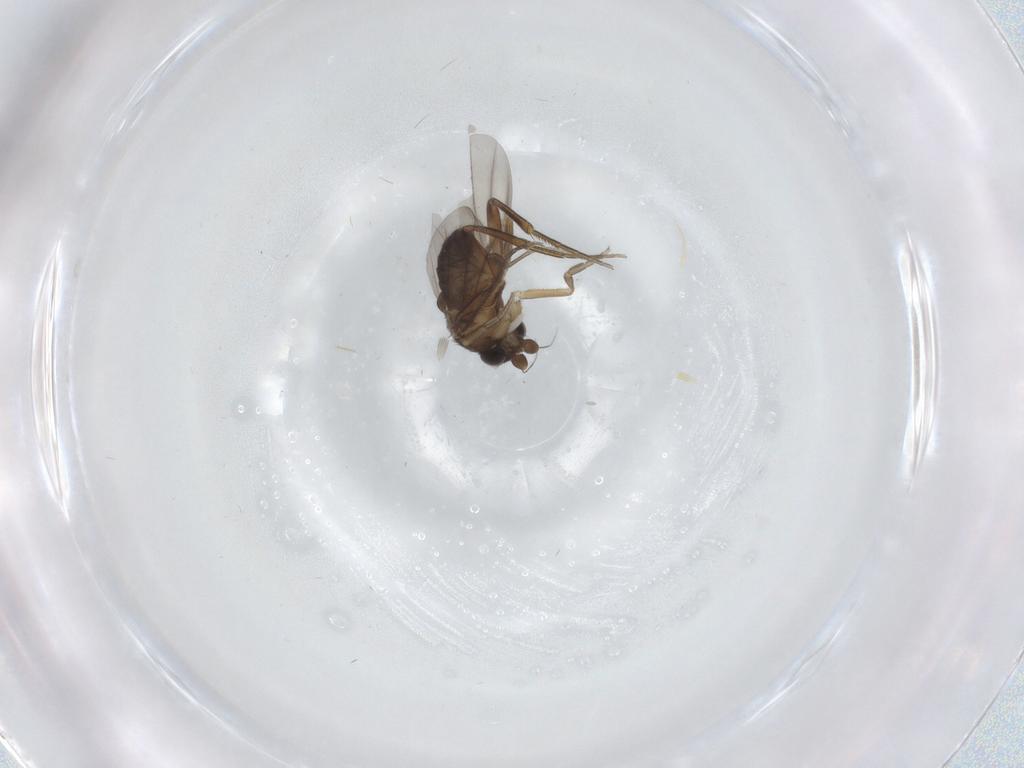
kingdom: Animalia
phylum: Arthropoda
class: Insecta
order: Diptera
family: Phoridae
